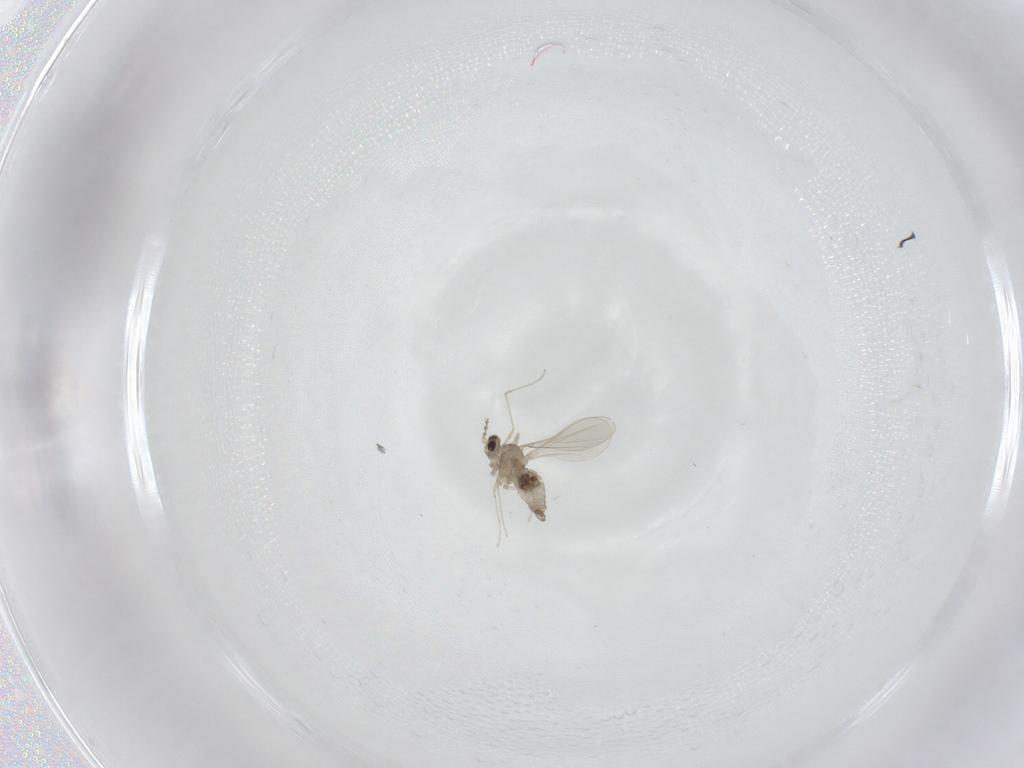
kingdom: Animalia
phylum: Arthropoda
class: Insecta
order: Diptera
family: Cecidomyiidae
